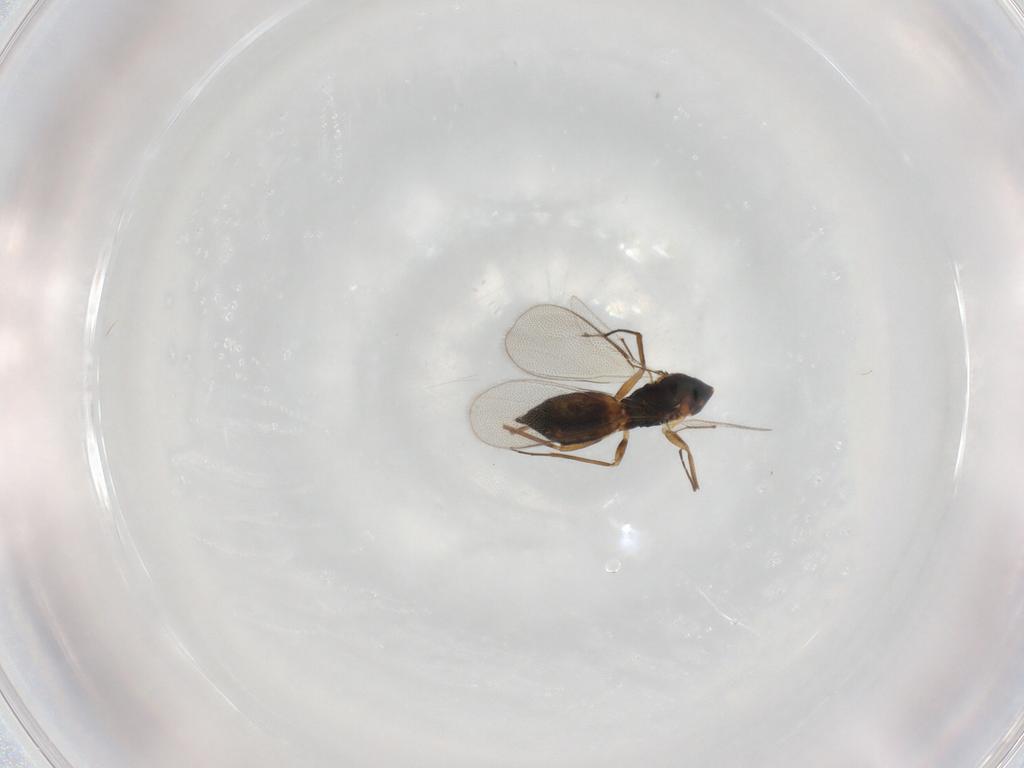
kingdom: Animalia
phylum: Arthropoda
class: Insecta
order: Hymenoptera
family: Eulophidae
